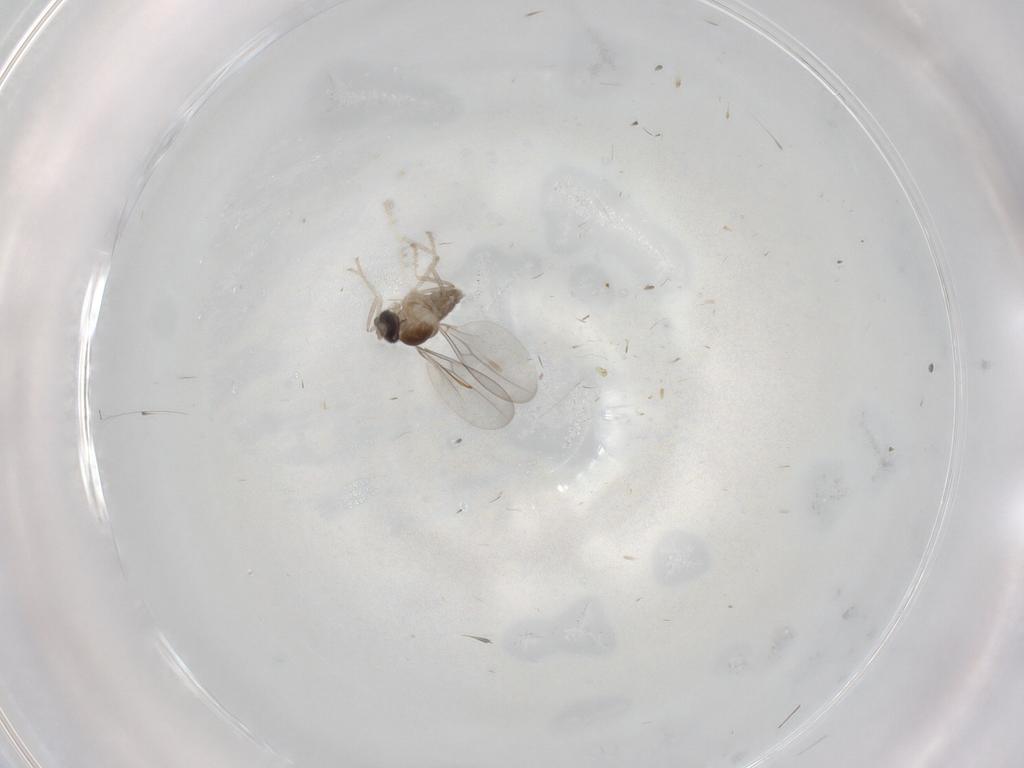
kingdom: Animalia
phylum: Arthropoda
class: Insecta
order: Diptera
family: Cecidomyiidae
